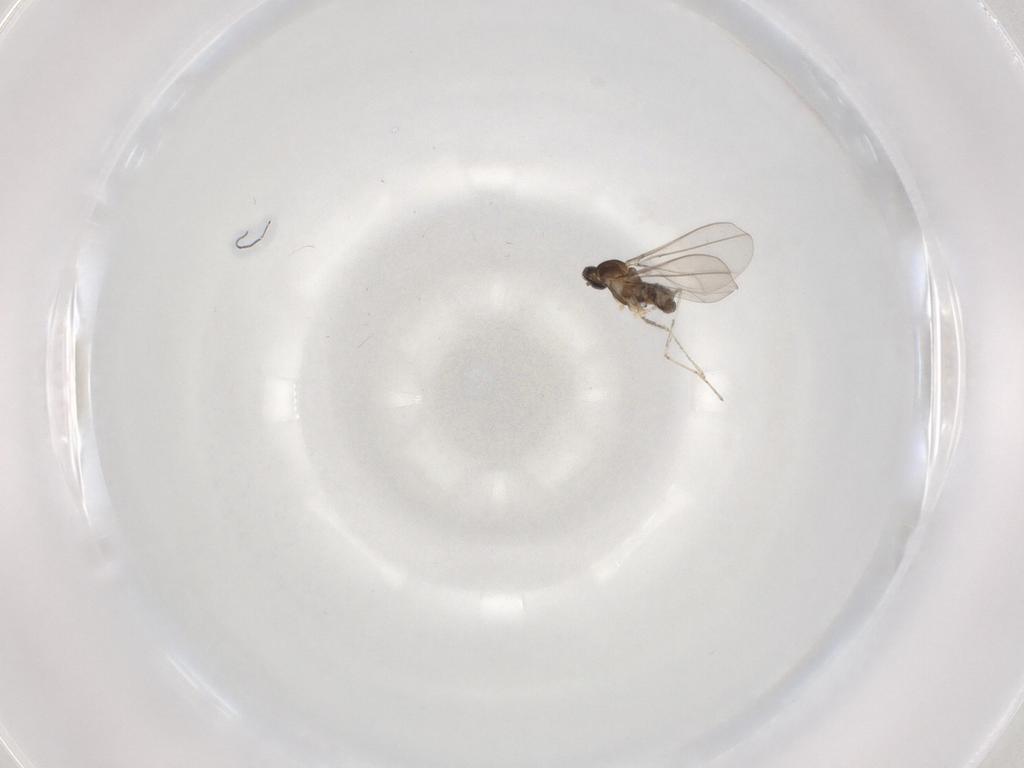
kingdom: Animalia
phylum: Arthropoda
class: Insecta
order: Diptera
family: Cecidomyiidae
